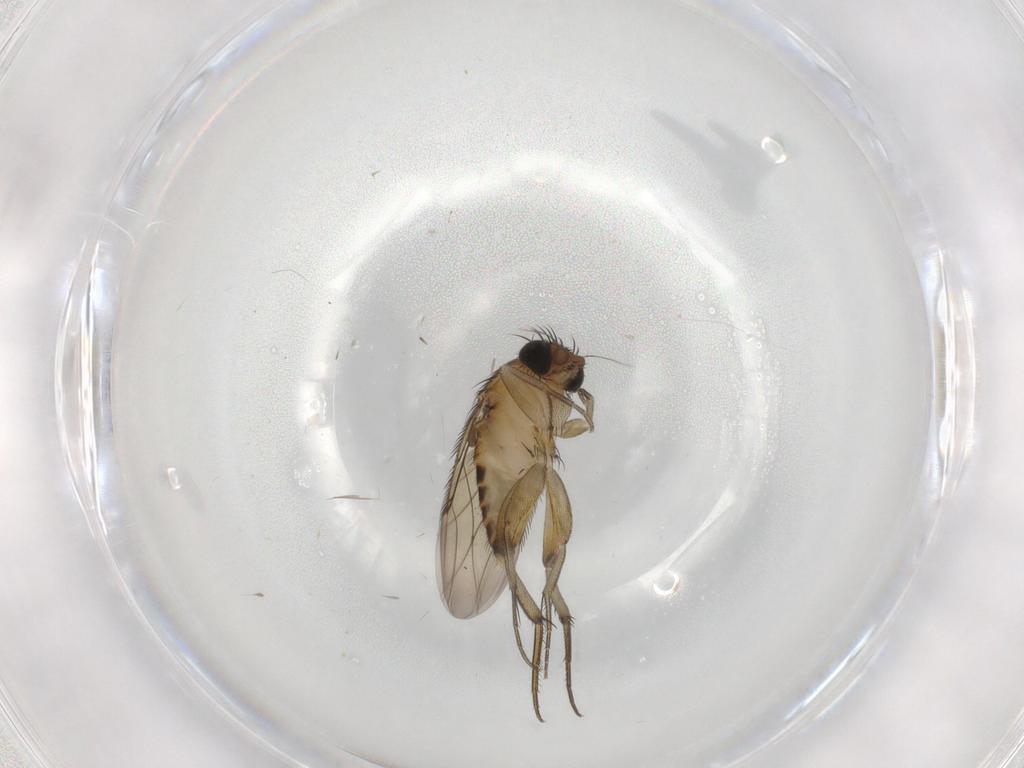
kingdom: Animalia
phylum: Arthropoda
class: Insecta
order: Diptera
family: Phoridae
